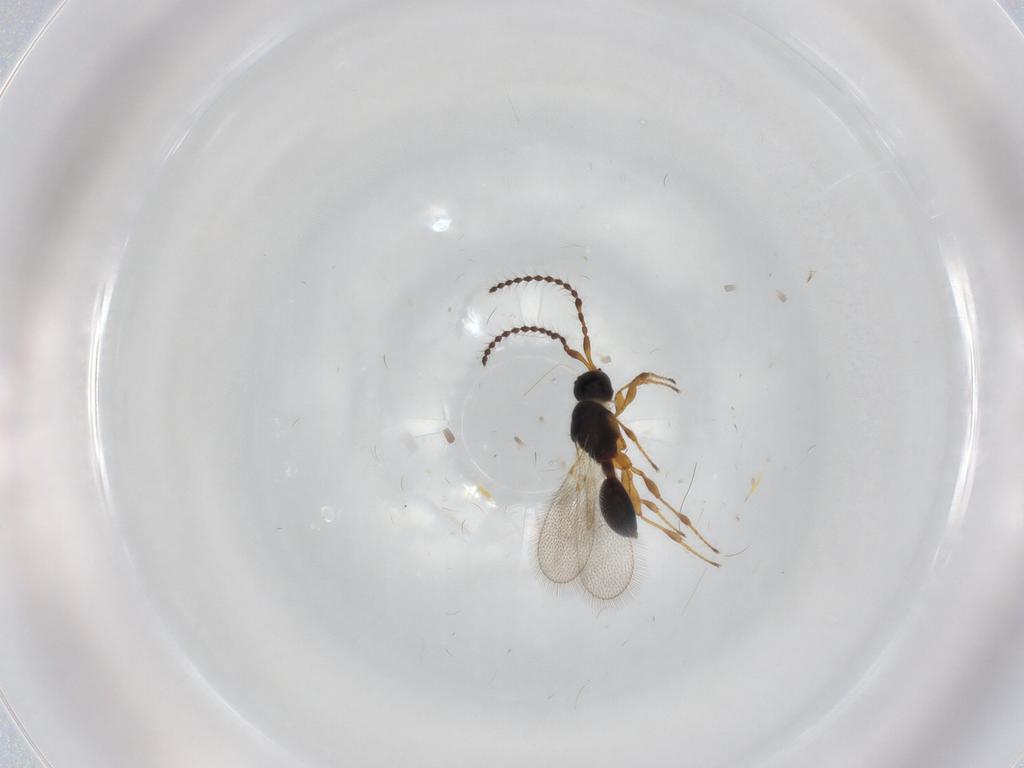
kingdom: Animalia
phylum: Arthropoda
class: Insecta
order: Hymenoptera
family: Diapriidae
